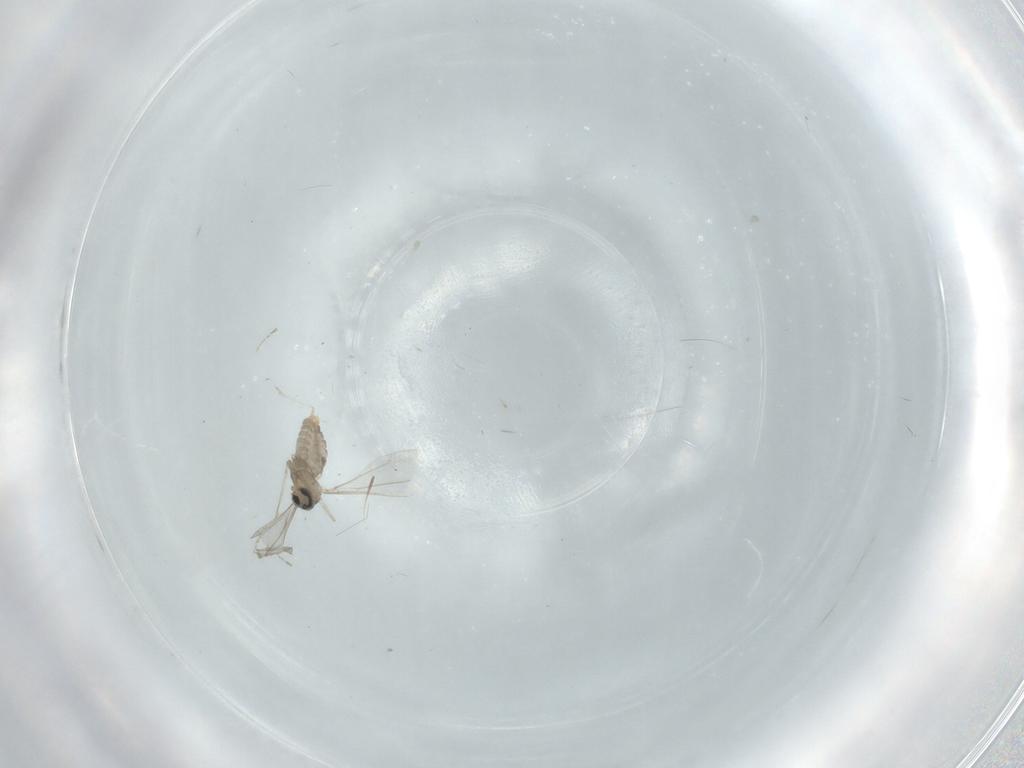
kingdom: Animalia
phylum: Arthropoda
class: Insecta
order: Diptera
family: Cecidomyiidae
